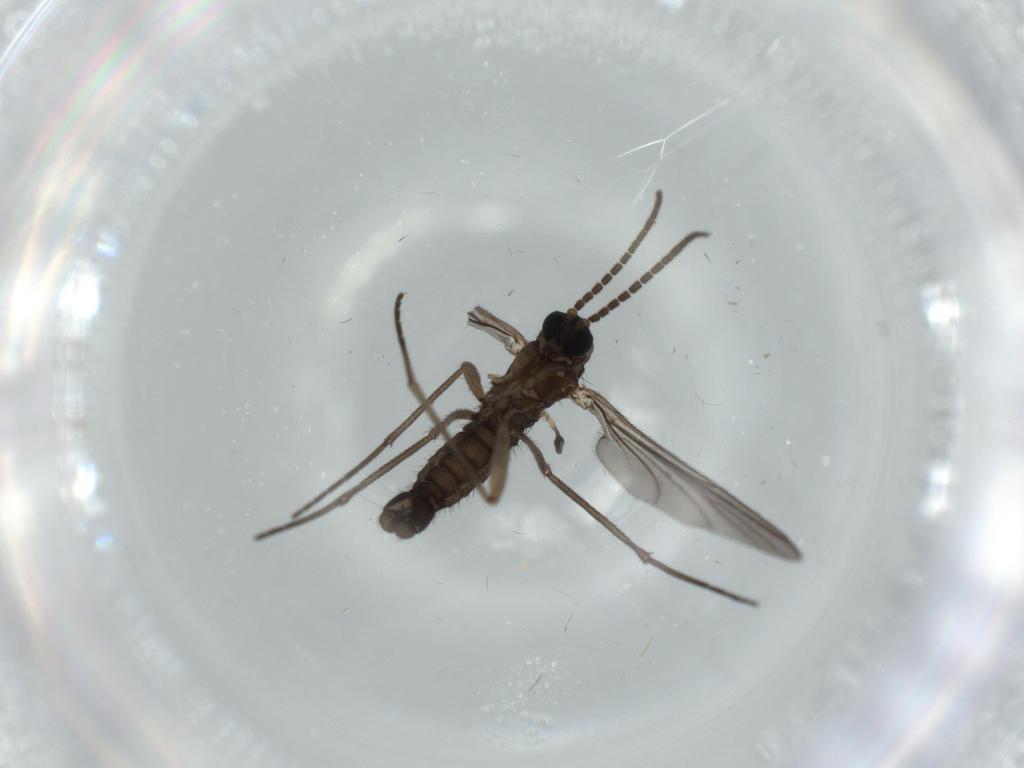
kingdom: Animalia
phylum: Arthropoda
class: Insecta
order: Diptera
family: Sciaridae
